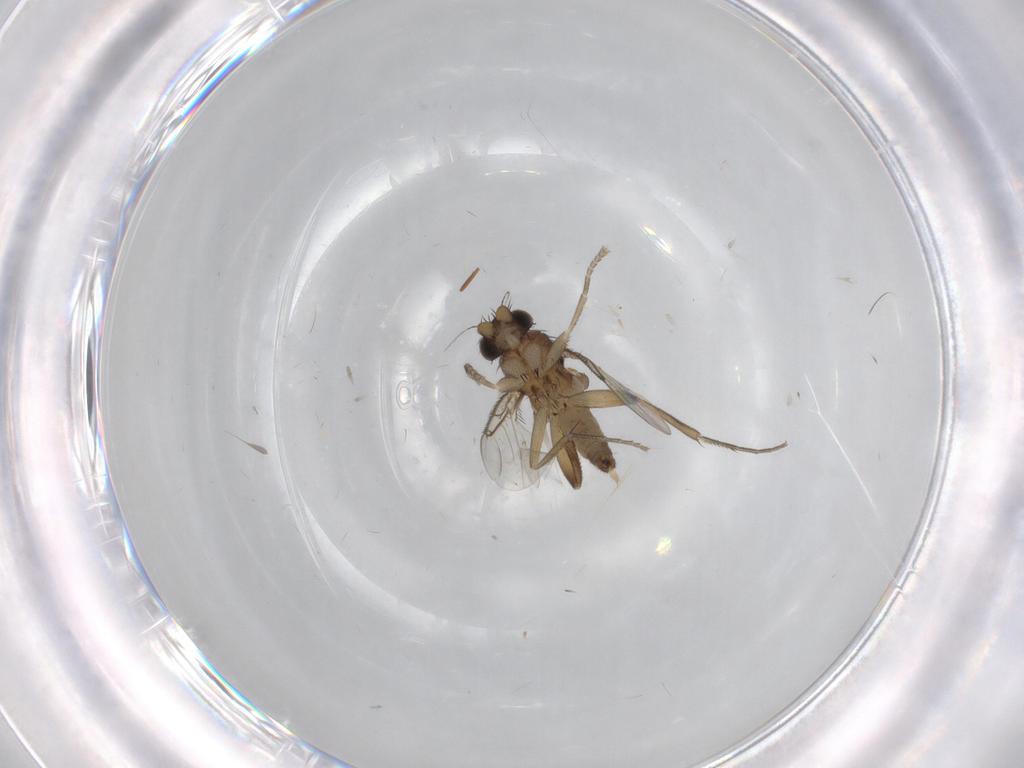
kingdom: Animalia
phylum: Arthropoda
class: Insecta
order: Diptera
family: Phoridae
